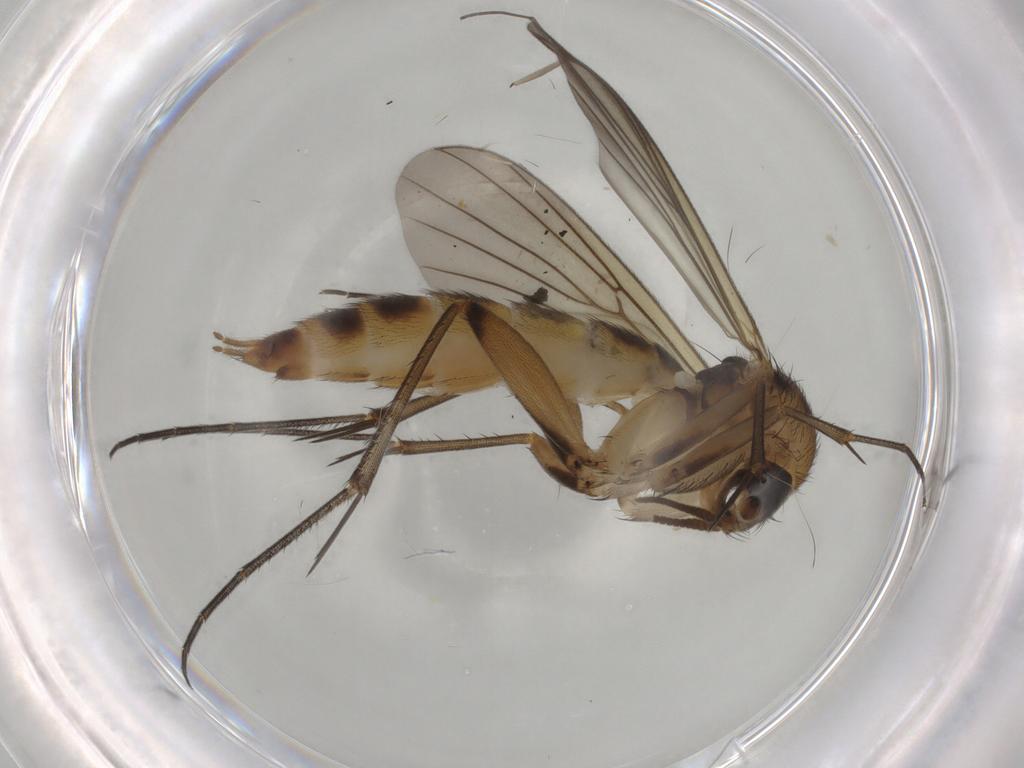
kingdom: Animalia
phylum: Arthropoda
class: Insecta
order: Diptera
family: Mycetophilidae
